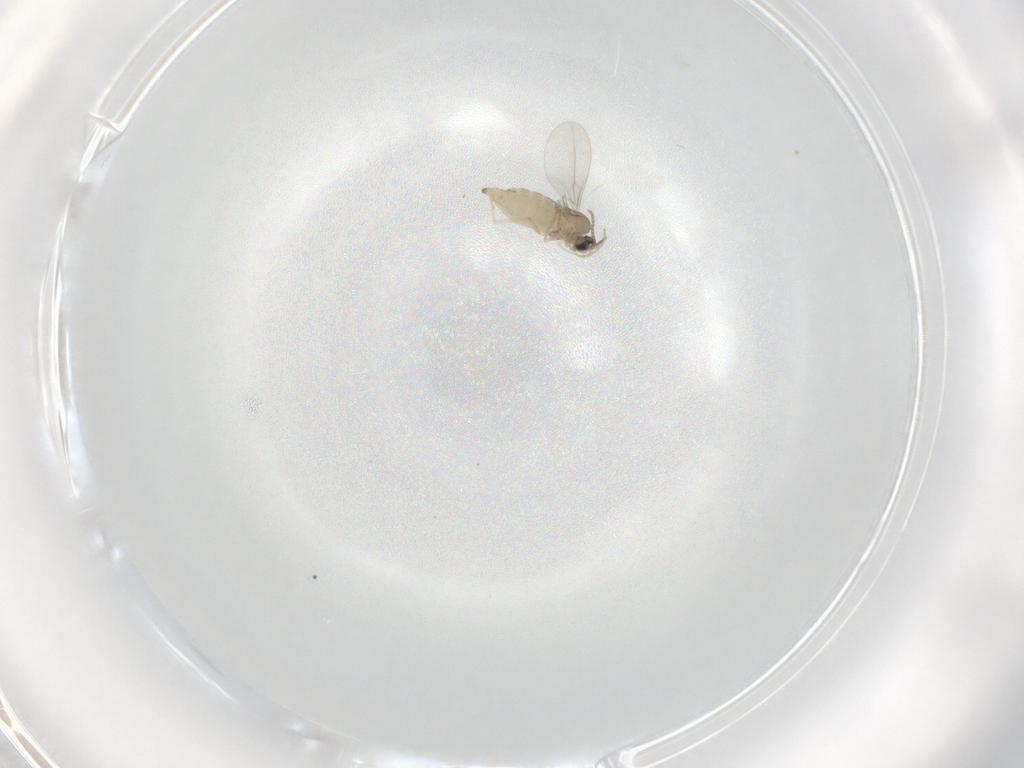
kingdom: Animalia
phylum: Arthropoda
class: Insecta
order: Diptera
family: Cecidomyiidae
